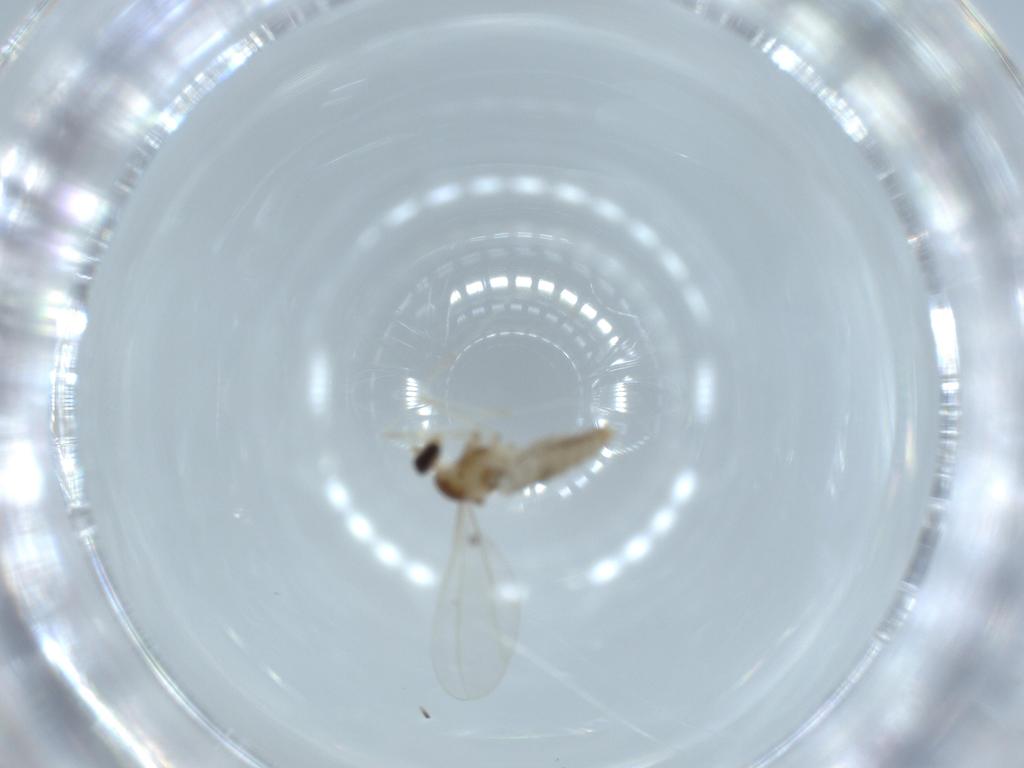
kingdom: Animalia
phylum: Arthropoda
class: Insecta
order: Diptera
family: Cecidomyiidae
